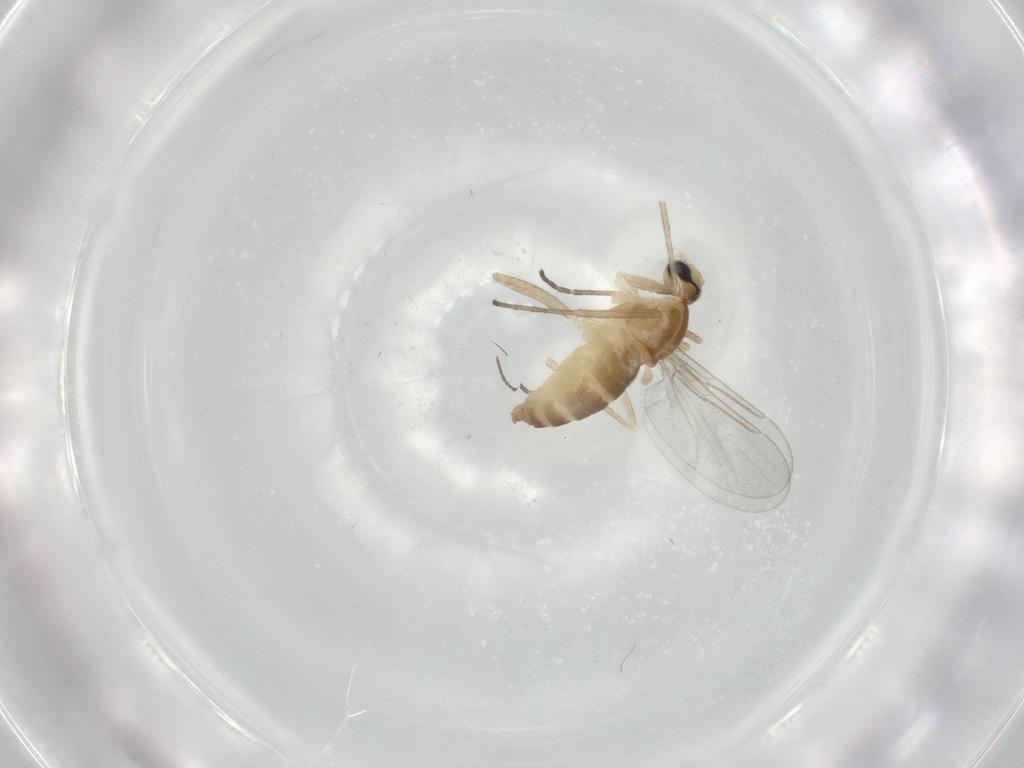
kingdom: Animalia
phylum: Arthropoda
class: Insecta
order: Diptera
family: Cecidomyiidae
